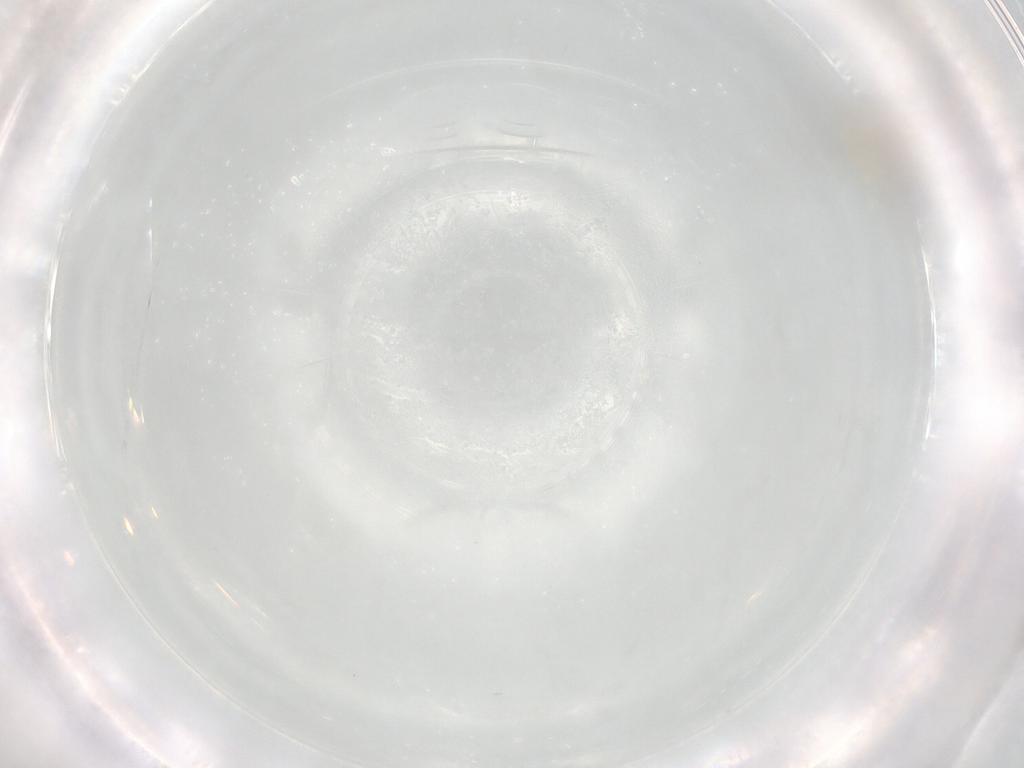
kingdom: Animalia
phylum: Arthropoda
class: Insecta
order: Diptera
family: Cecidomyiidae
